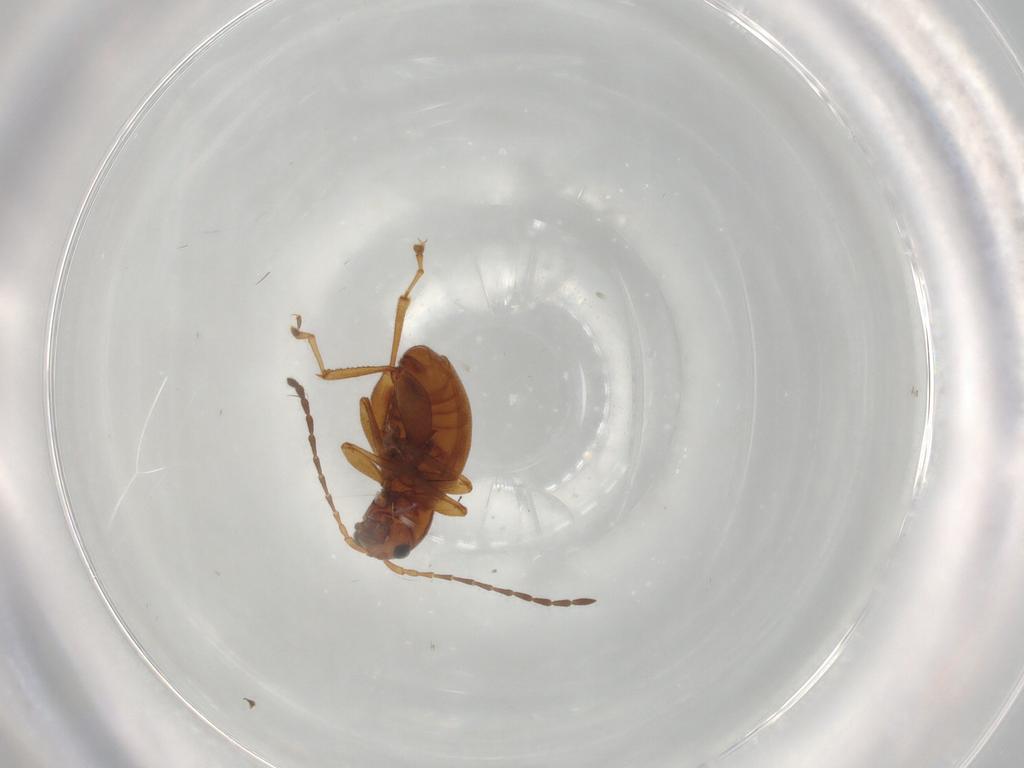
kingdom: Animalia
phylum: Arthropoda
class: Insecta
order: Coleoptera
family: Chrysomelidae
